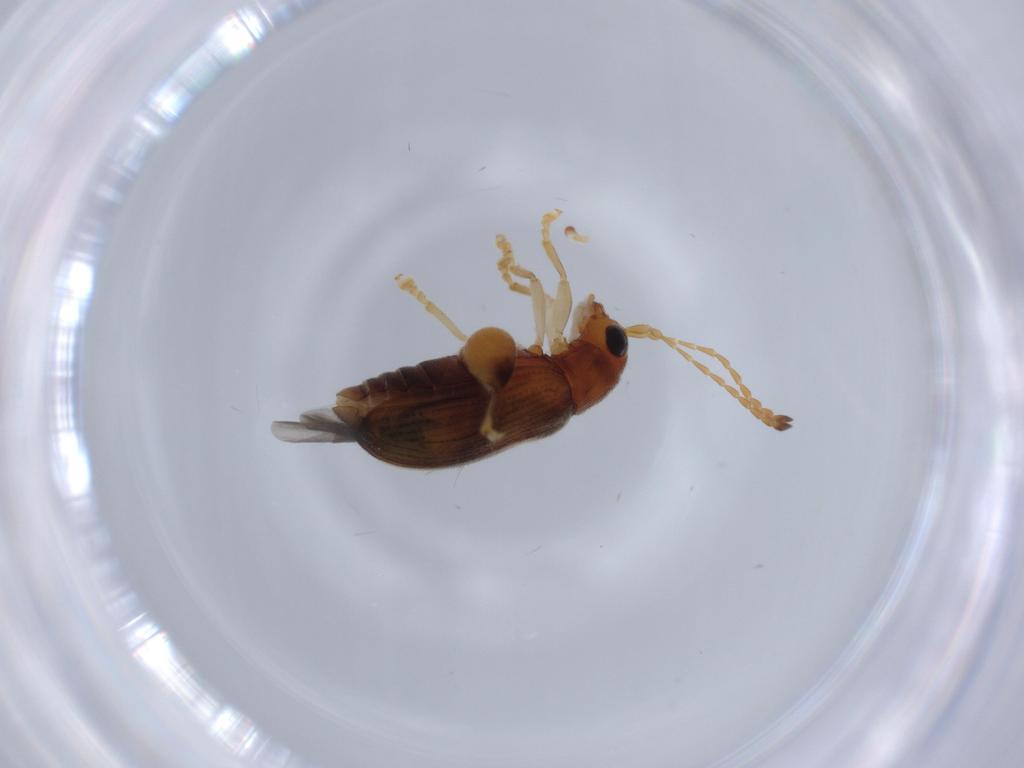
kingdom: Animalia
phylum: Arthropoda
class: Insecta
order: Coleoptera
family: Chrysomelidae
